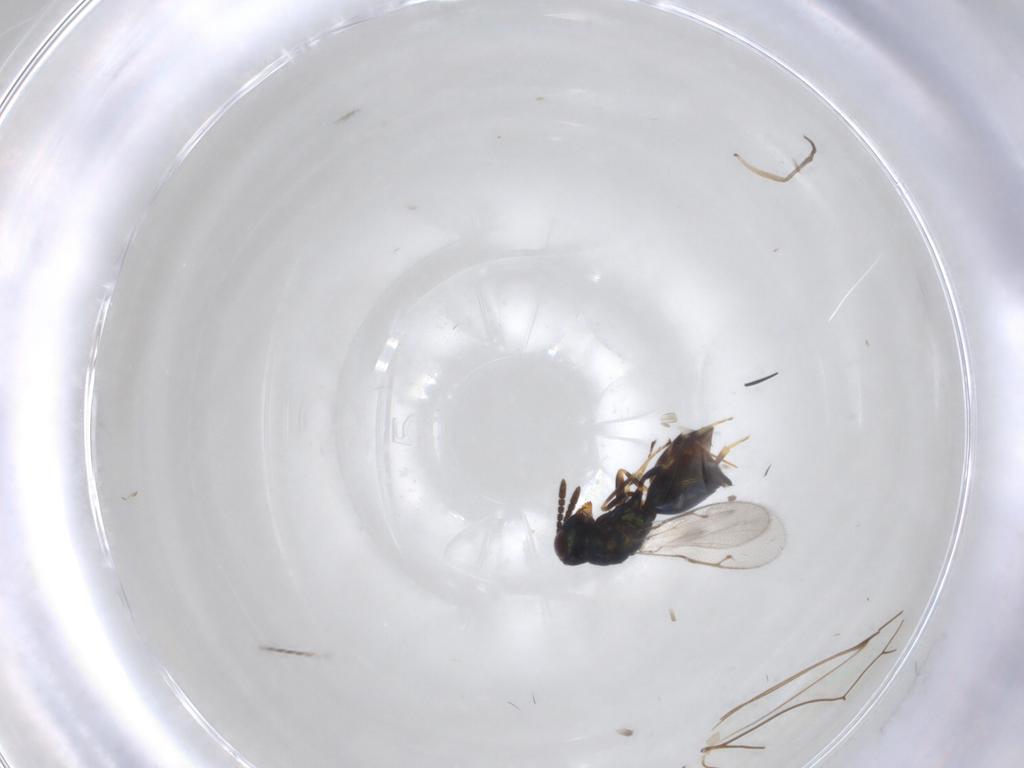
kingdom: Animalia
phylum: Arthropoda
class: Insecta
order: Hymenoptera
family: Pteromalidae
